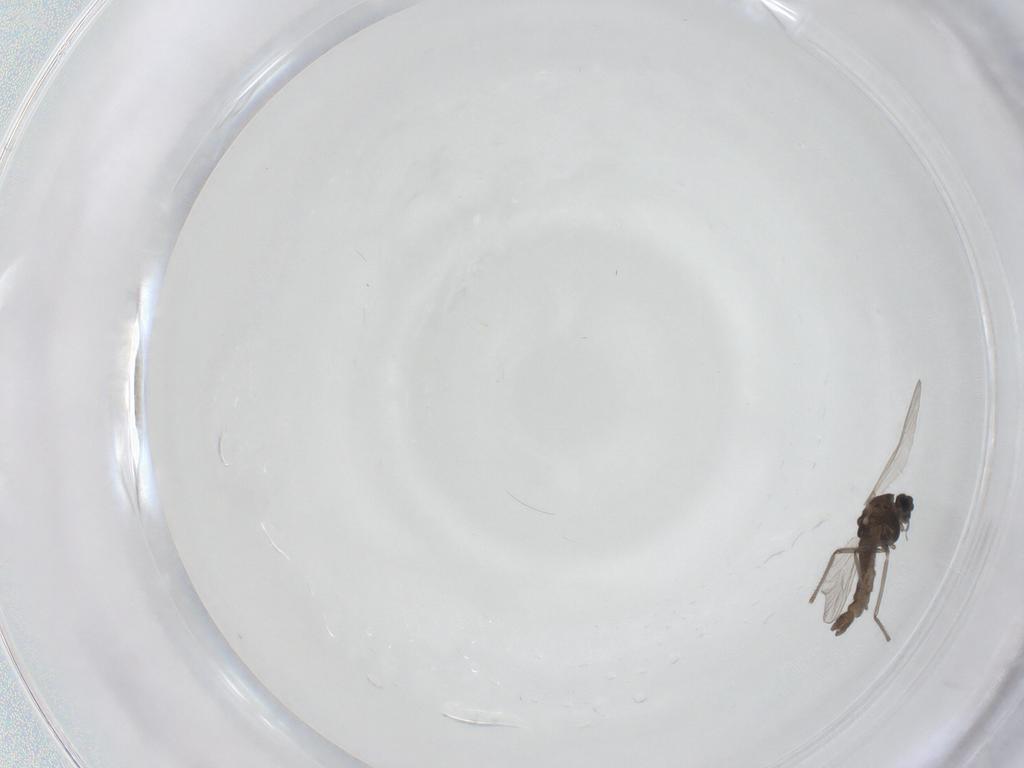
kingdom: Animalia
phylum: Arthropoda
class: Insecta
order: Diptera
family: Chironomidae
